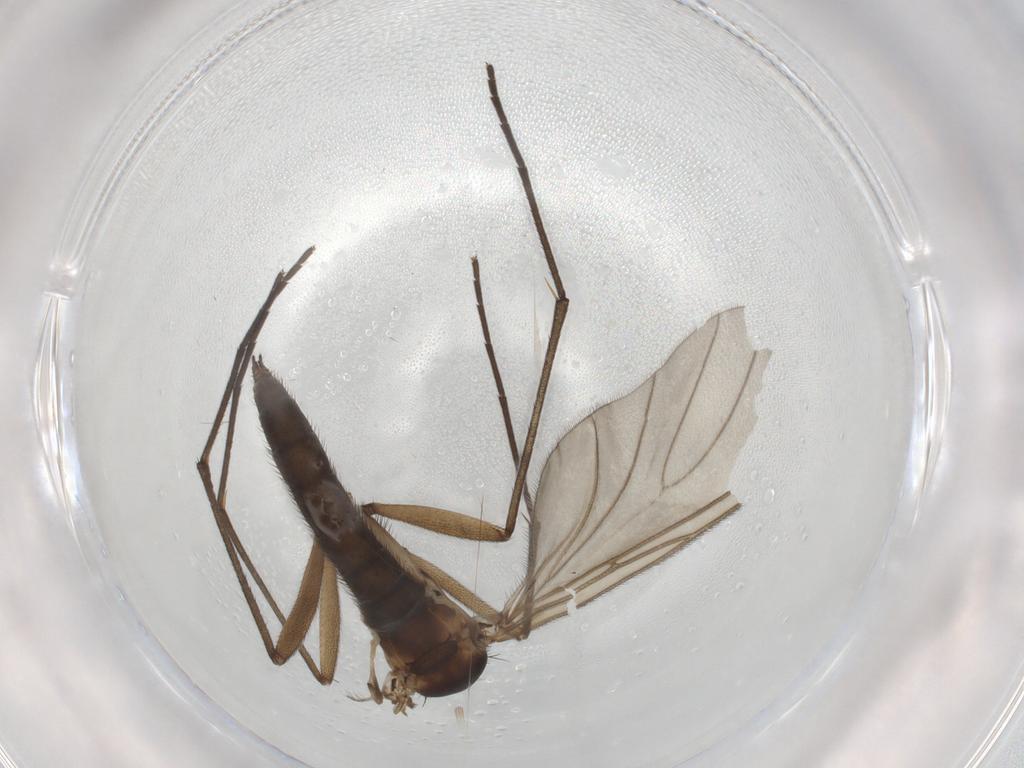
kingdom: Animalia
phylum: Arthropoda
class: Insecta
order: Diptera
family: Sciaridae
